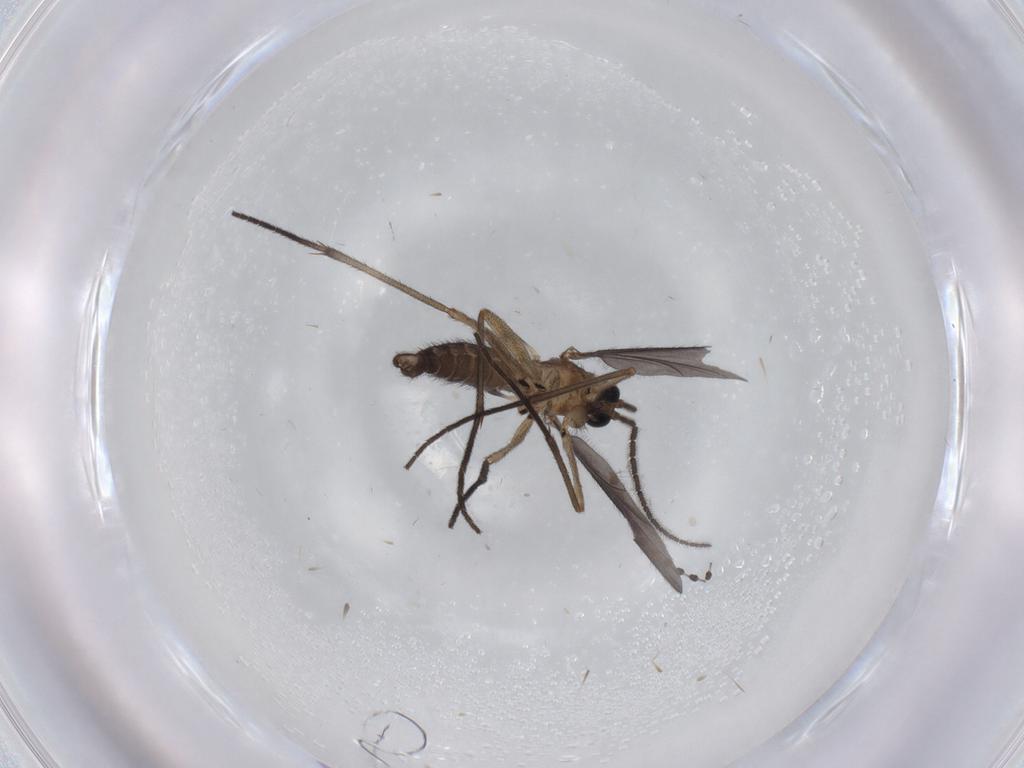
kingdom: Animalia
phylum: Arthropoda
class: Insecta
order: Diptera
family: Sciaridae
